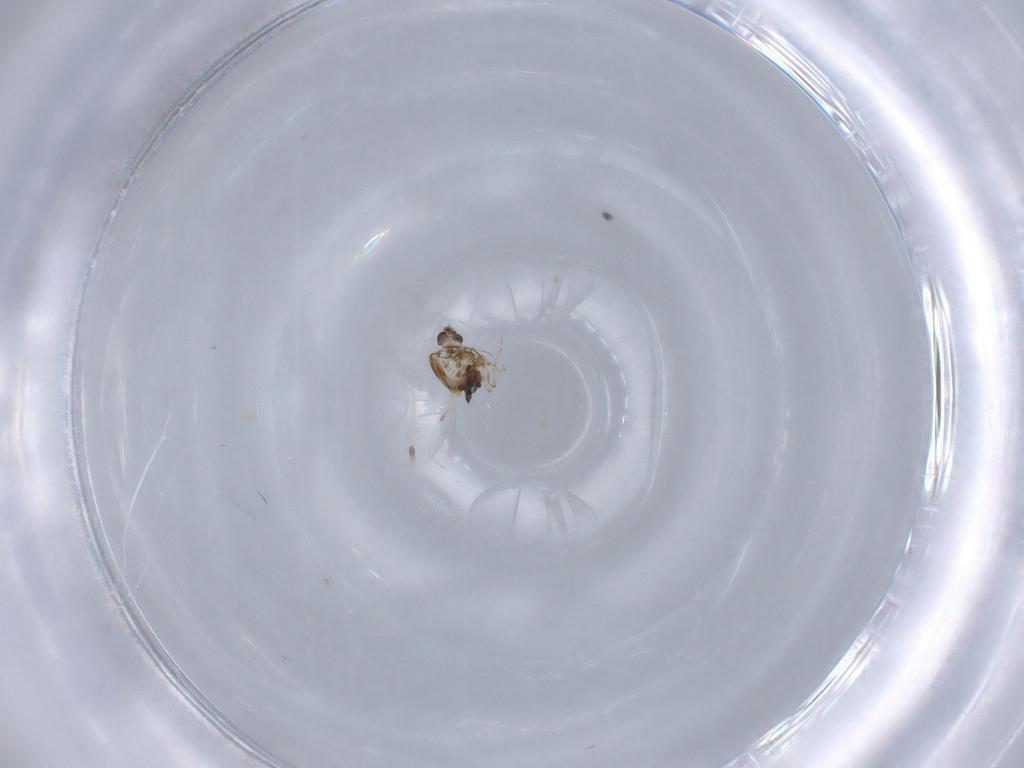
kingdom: Animalia
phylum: Arthropoda
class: Insecta
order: Diptera
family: Ceratopogonidae
